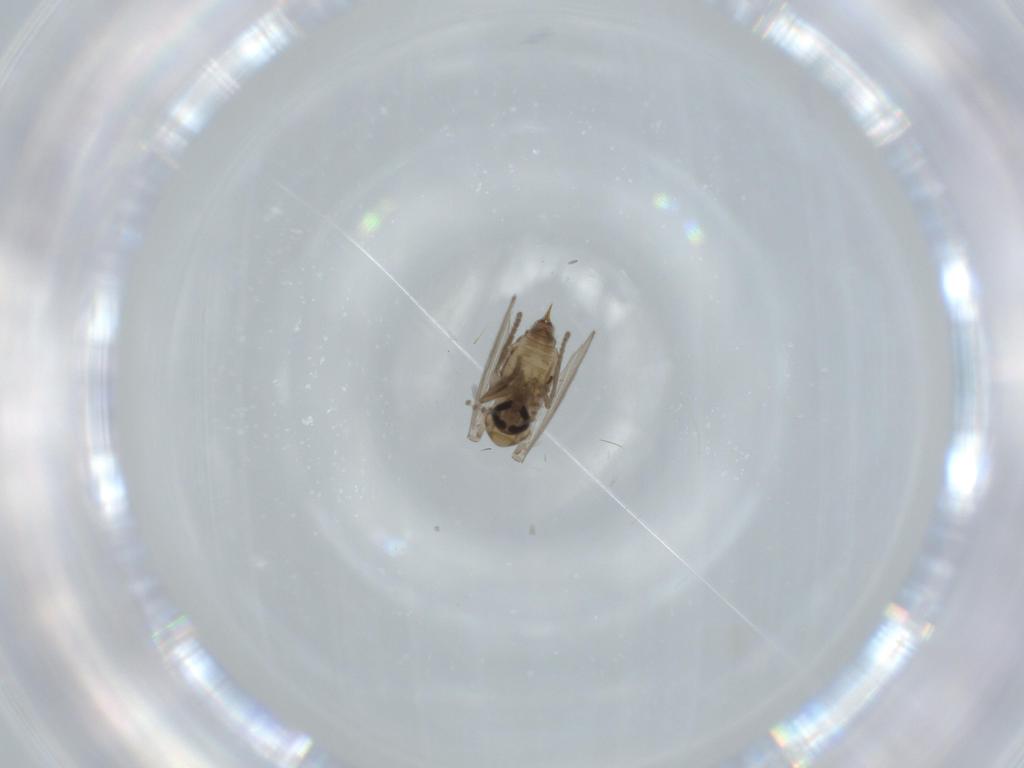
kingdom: Animalia
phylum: Arthropoda
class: Insecta
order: Diptera
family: Psychodidae
